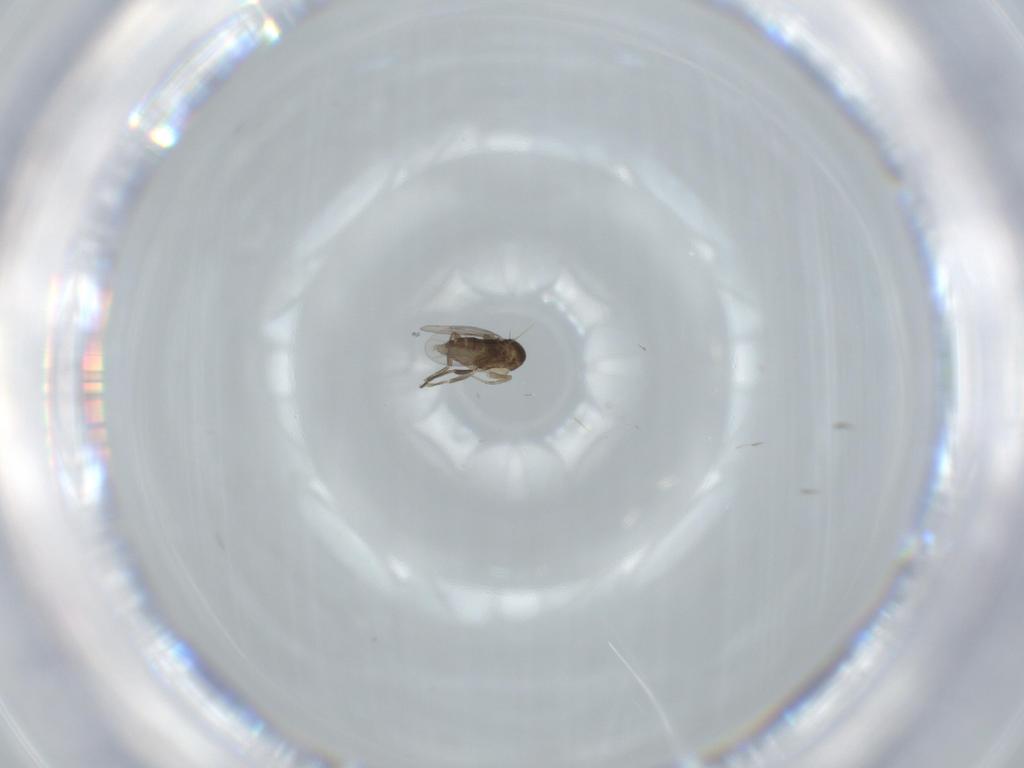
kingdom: Animalia
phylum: Arthropoda
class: Insecta
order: Diptera
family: Phoridae
